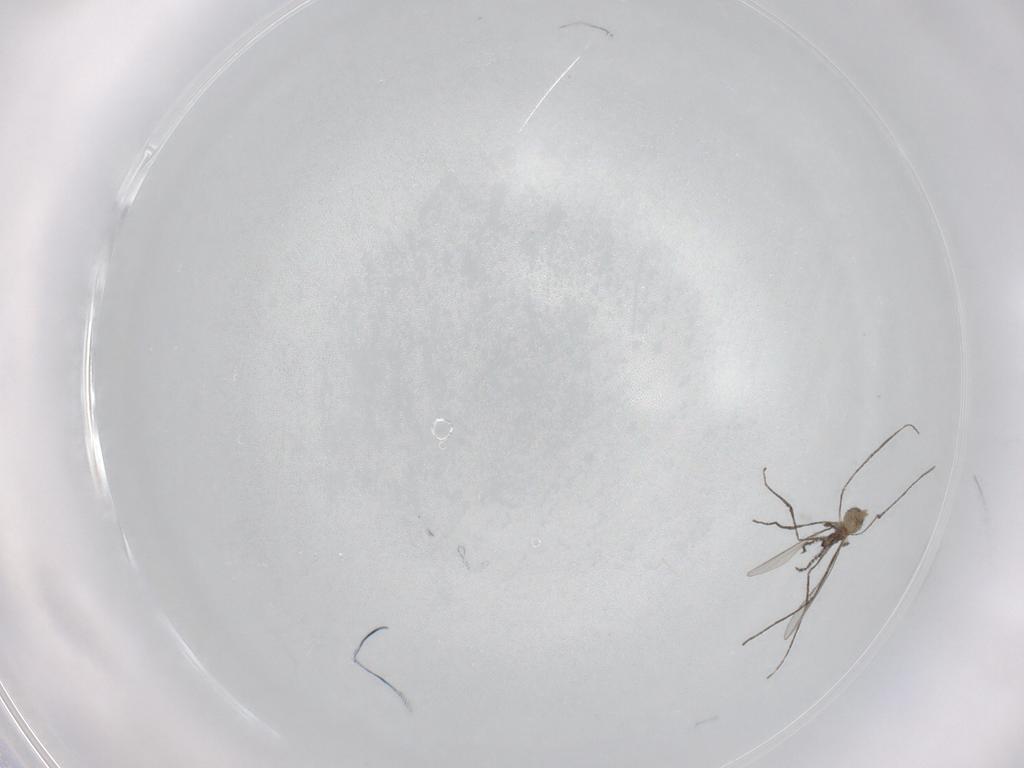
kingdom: Animalia
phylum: Arthropoda
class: Insecta
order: Diptera
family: Cecidomyiidae
